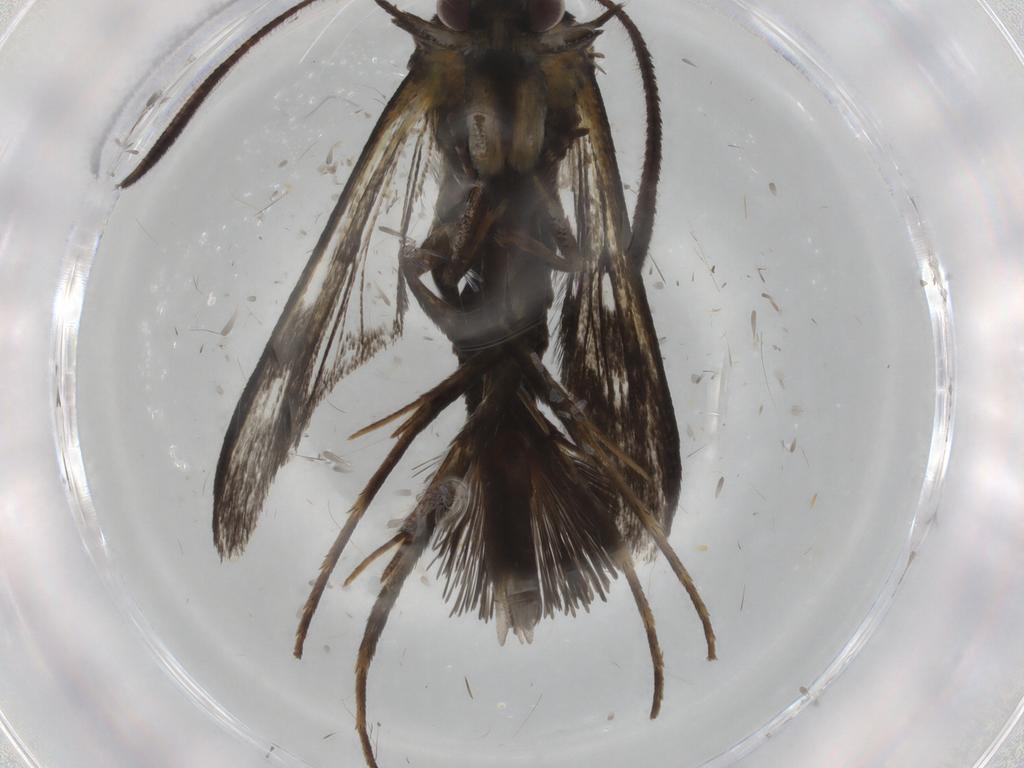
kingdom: Animalia
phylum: Arthropoda
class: Insecta
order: Lepidoptera
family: Sesiidae
